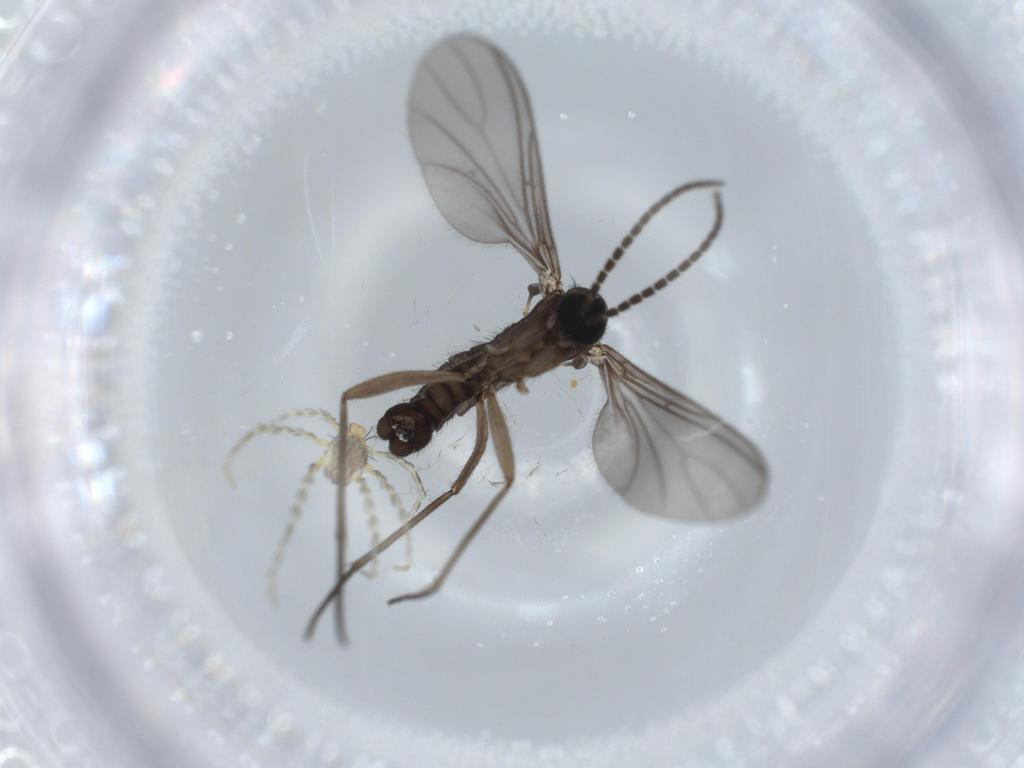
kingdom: Animalia
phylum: Arthropoda
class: Insecta
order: Diptera
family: Sciaridae
